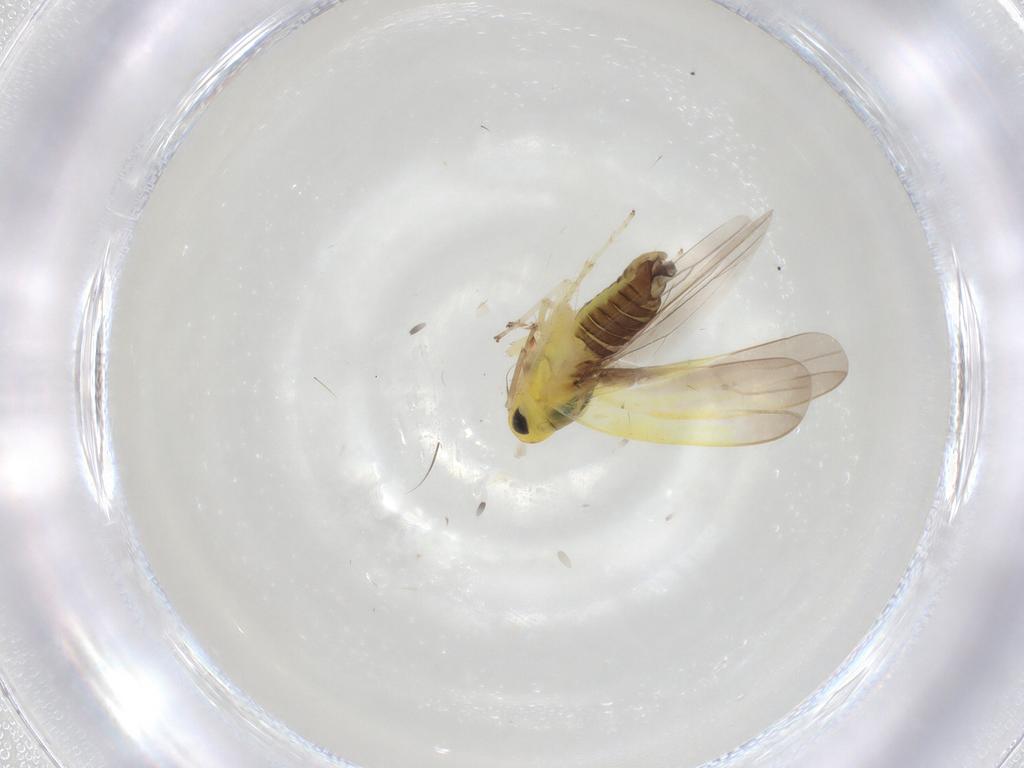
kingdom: Animalia
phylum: Arthropoda
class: Insecta
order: Hemiptera
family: Cicadellidae
